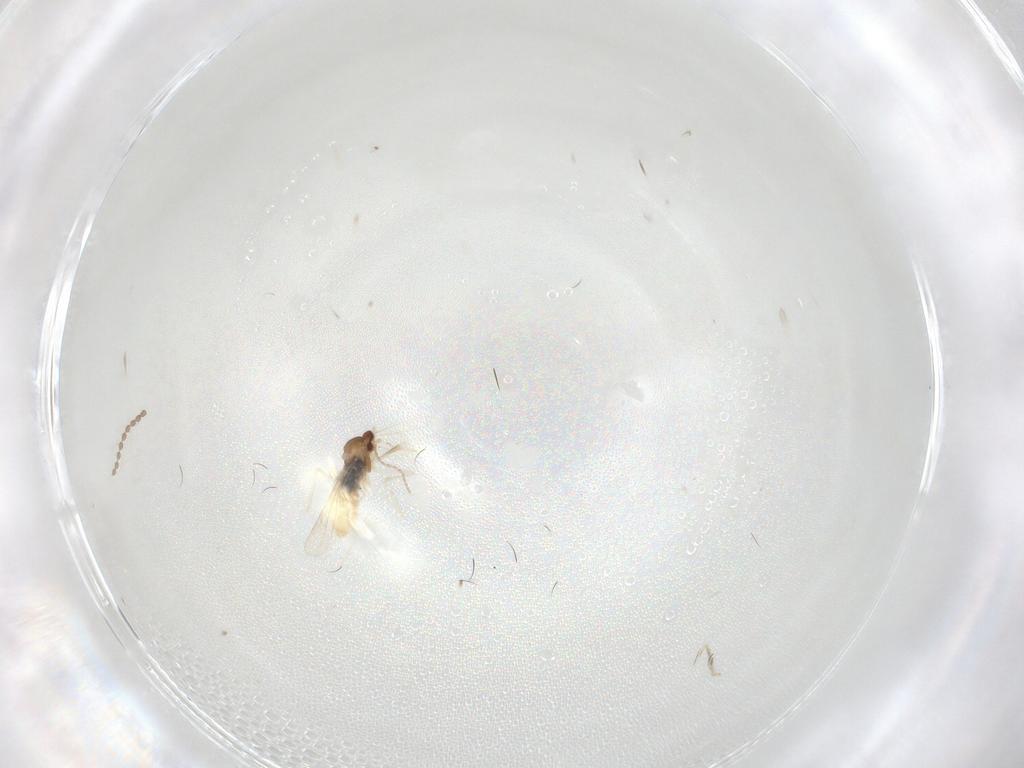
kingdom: Animalia
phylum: Arthropoda
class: Insecta
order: Diptera
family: Cecidomyiidae
